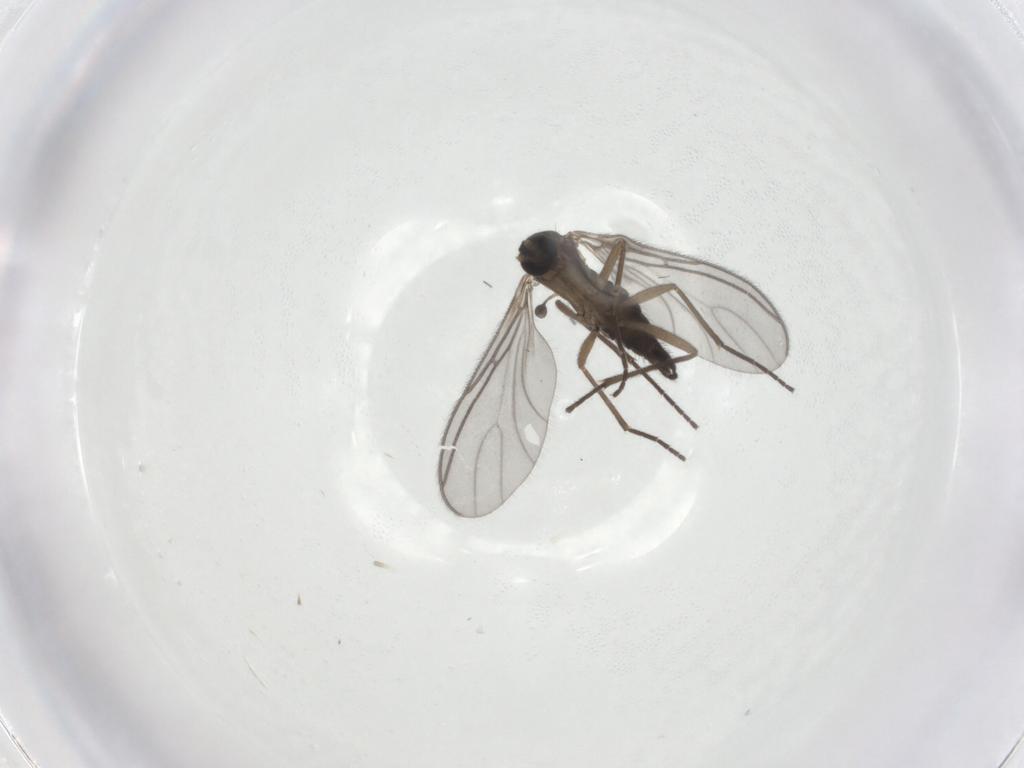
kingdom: Animalia
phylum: Arthropoda
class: Insecta
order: Diptera
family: Sciaridae
